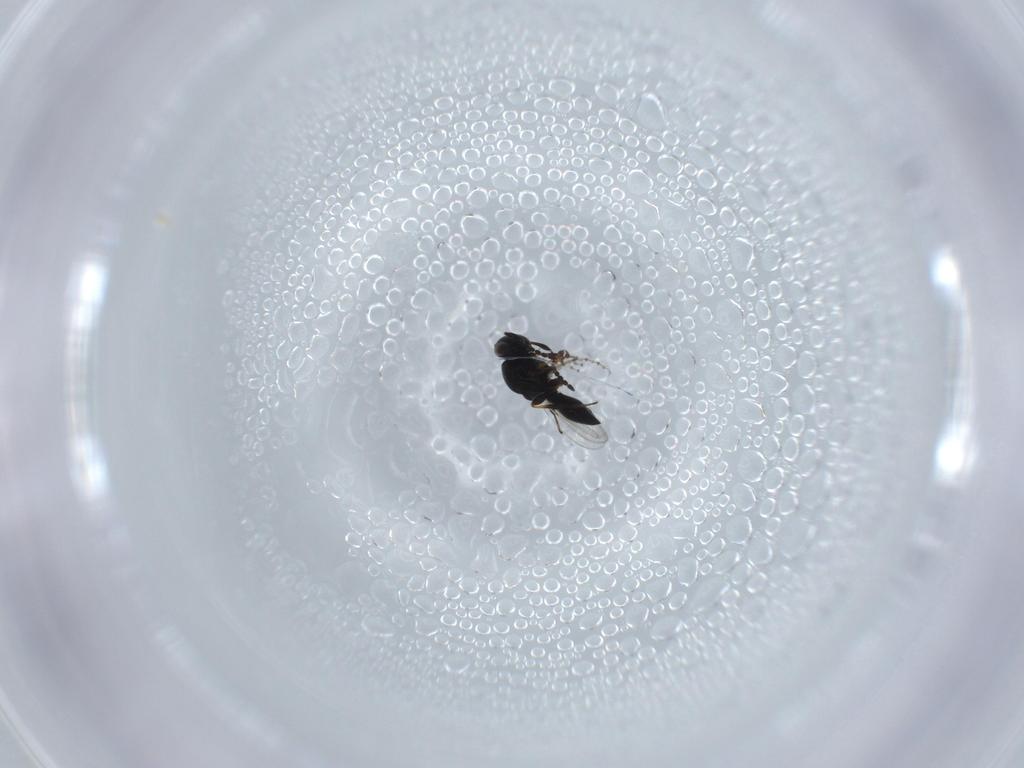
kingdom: Animalia
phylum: Arthropoda
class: Insecta
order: Hymenoptera
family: Platygastridae
